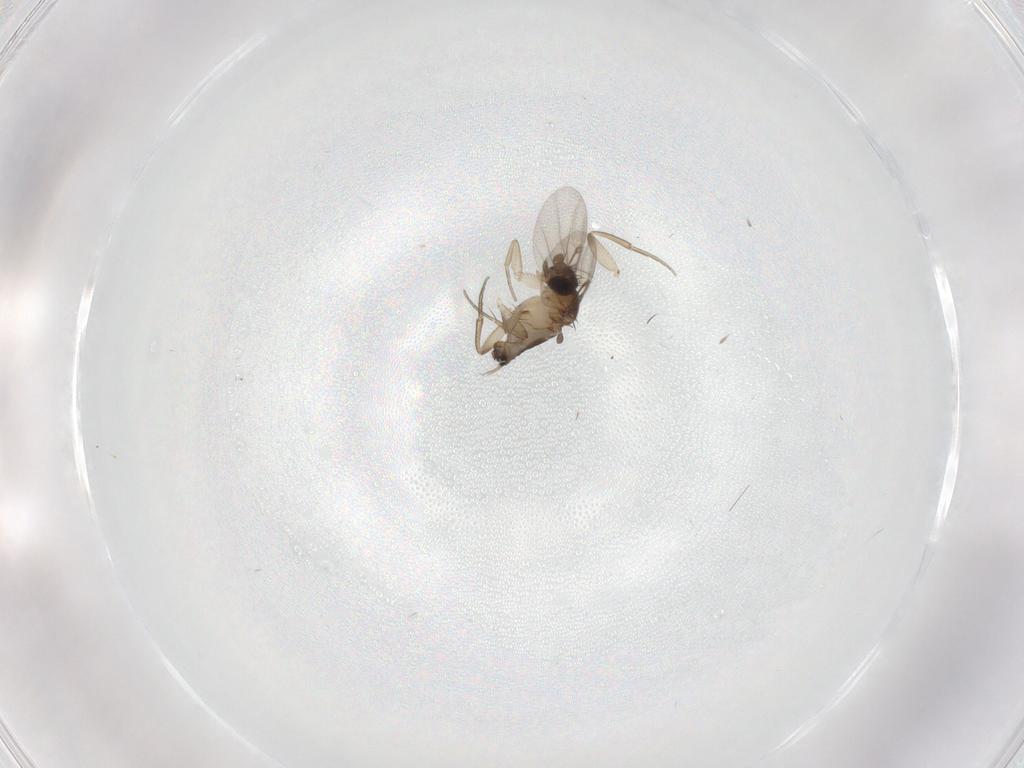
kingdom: Animalia
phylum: Arthropoda
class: Insecta
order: Diptera
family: Phoridae
